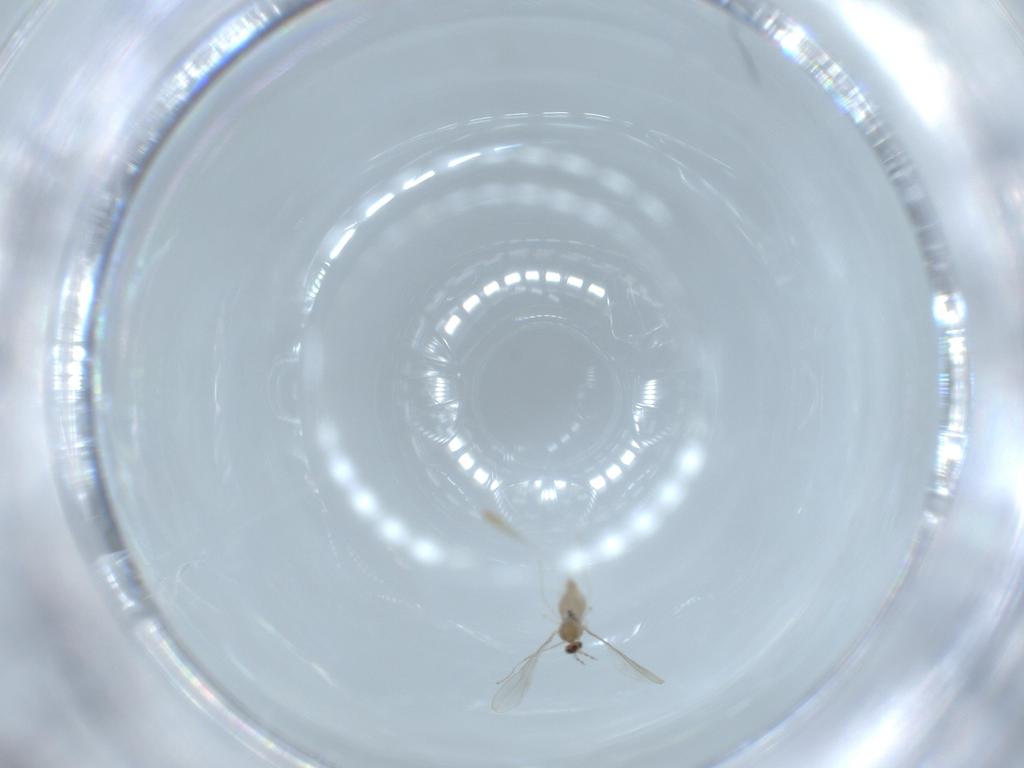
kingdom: Animalia
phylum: Arthropoda
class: Insecta
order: Diptera
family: Cecidomyiidae
